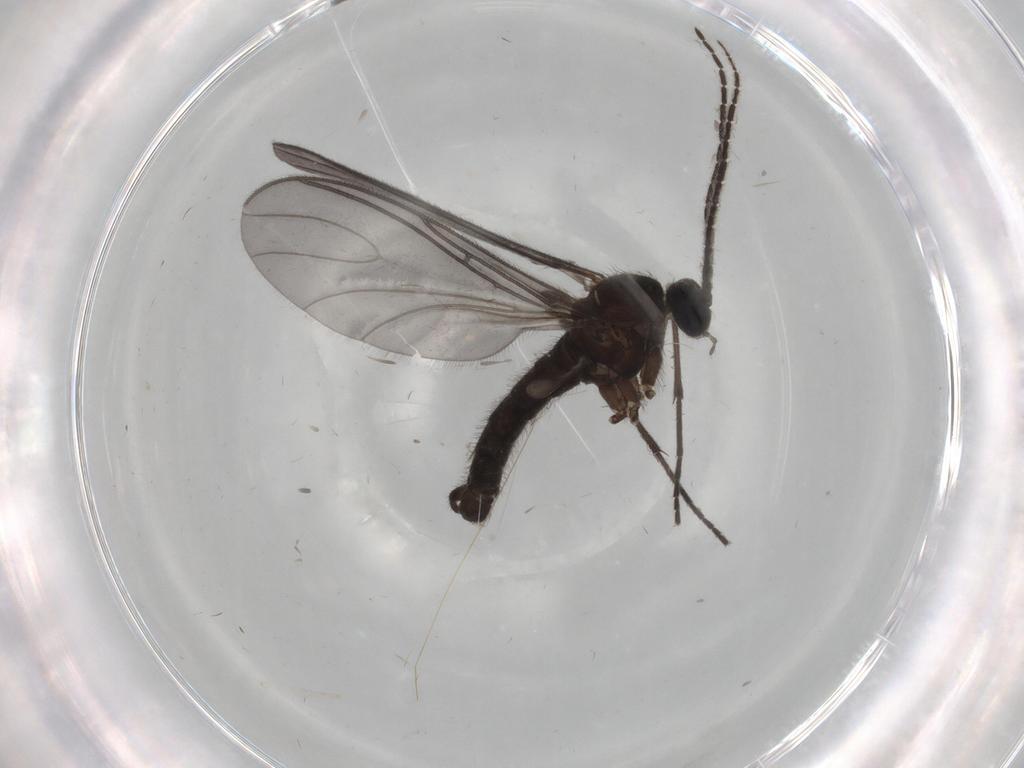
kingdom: Animalia
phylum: Arthropoda
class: Insecta
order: Diptera
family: Sciaridae
